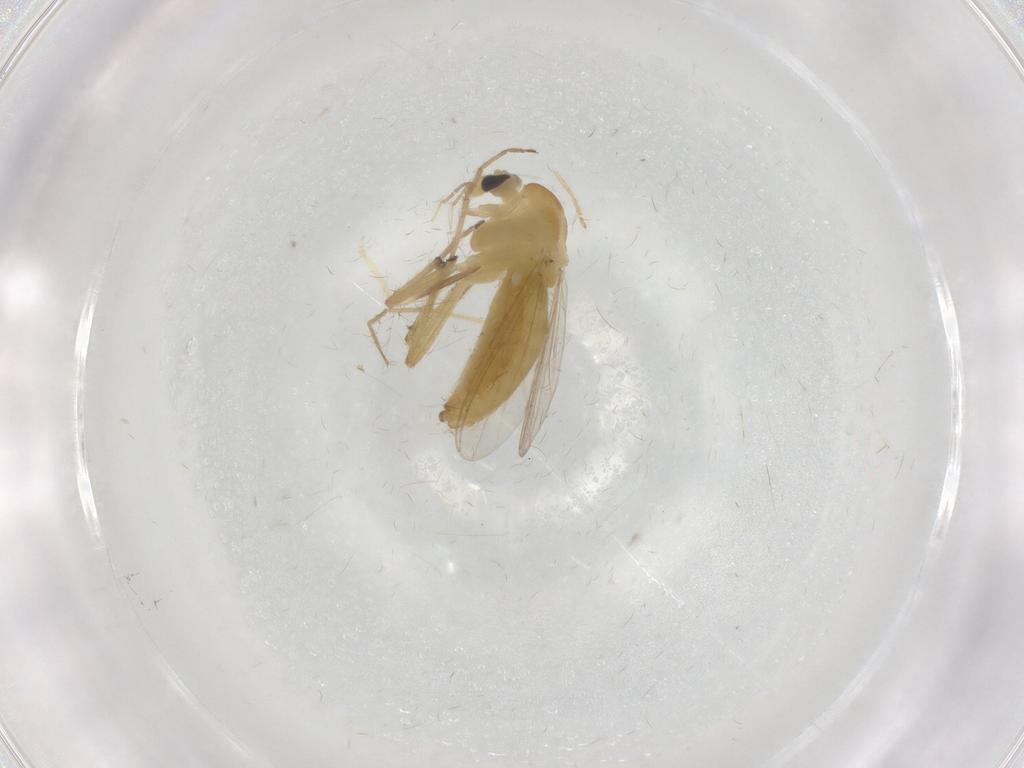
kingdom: Animalia
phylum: Arthropoda
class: Insecta
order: Diptera
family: Chironomidae
